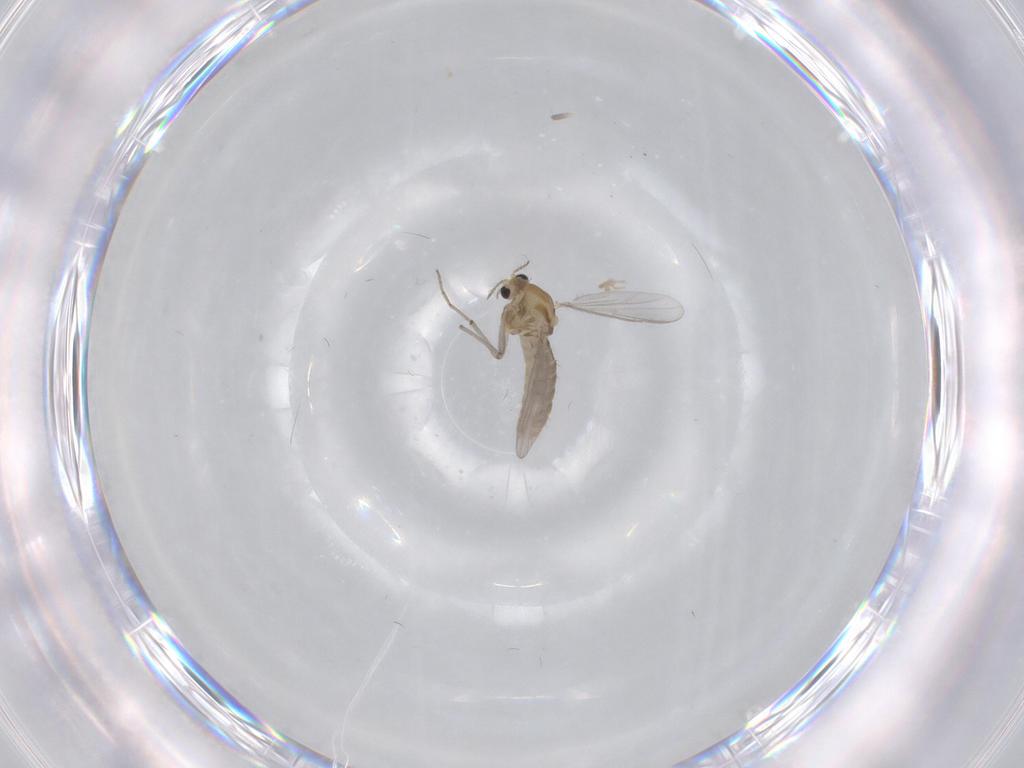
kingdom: Animalia
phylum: Arthropoda
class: Insecta
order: Diptera
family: Chironomidae
